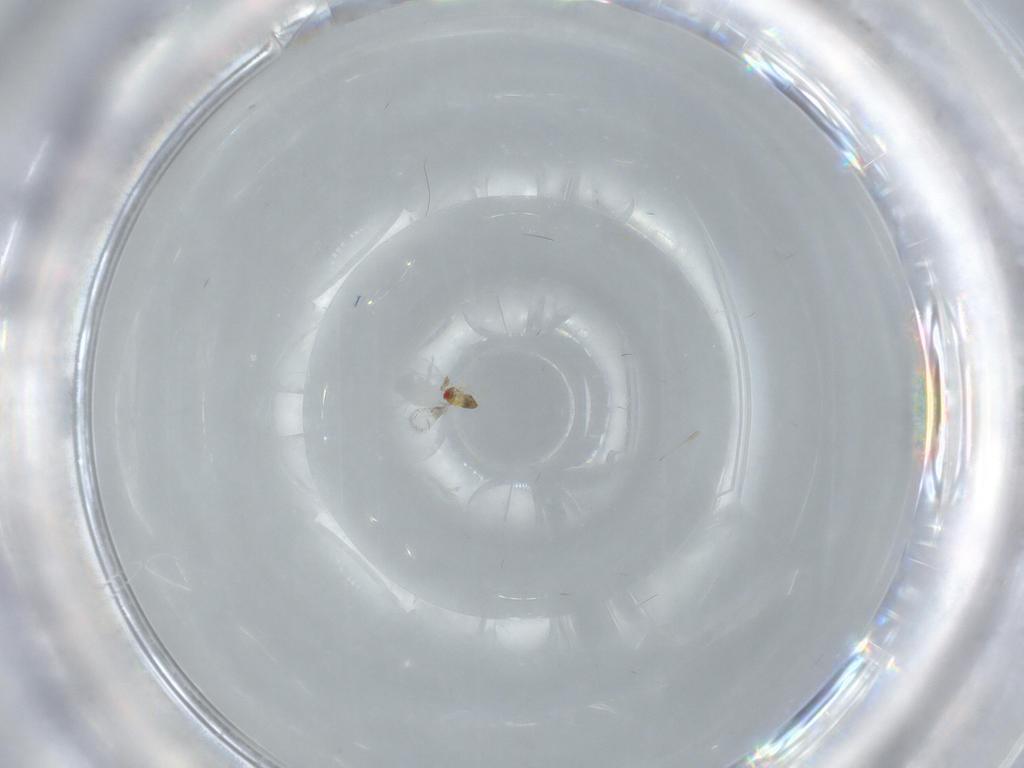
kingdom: Animalia
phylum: Arthropoda
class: Insecta
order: Hymenoptera
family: Trichogrammatidae
